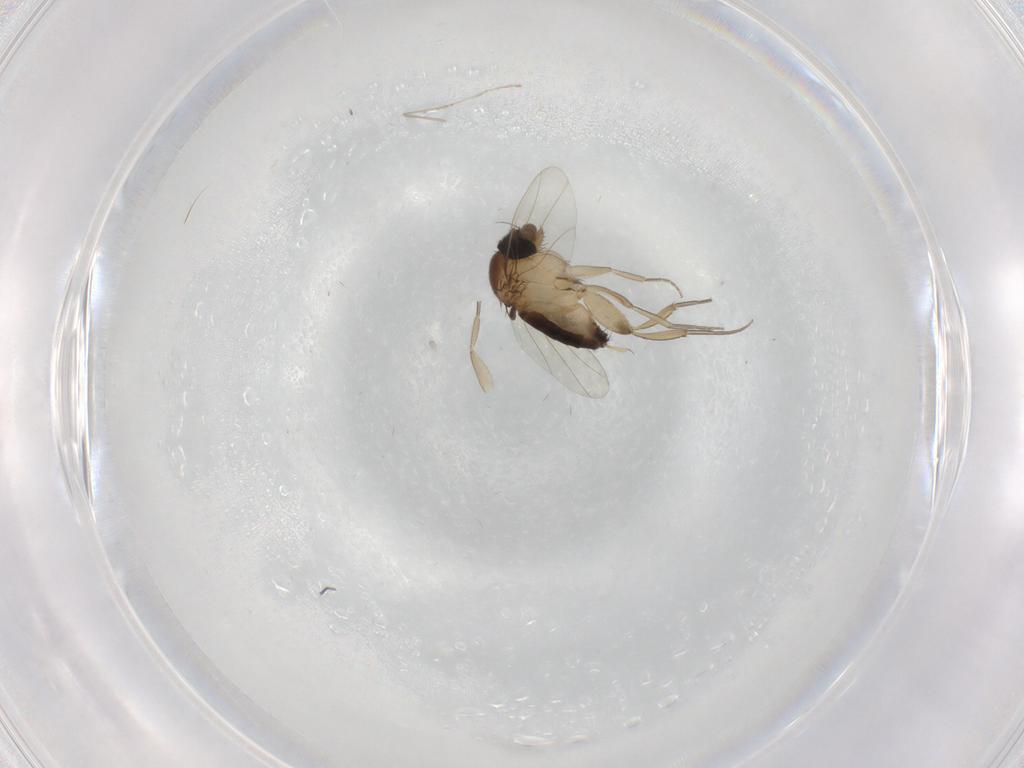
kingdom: Animalia
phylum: Arthropoda
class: Insecta
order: Diptera
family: Phoridae
